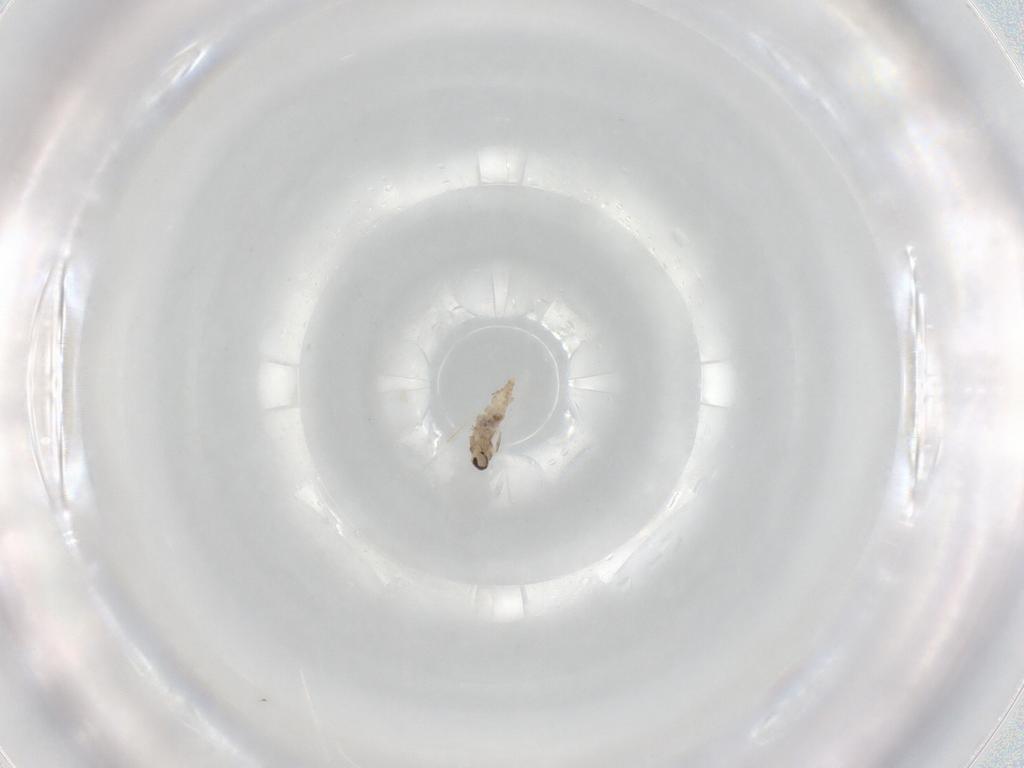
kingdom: Animalia
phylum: Arthropoda
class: Insecta
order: Diptera
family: Cecidomyiidae
